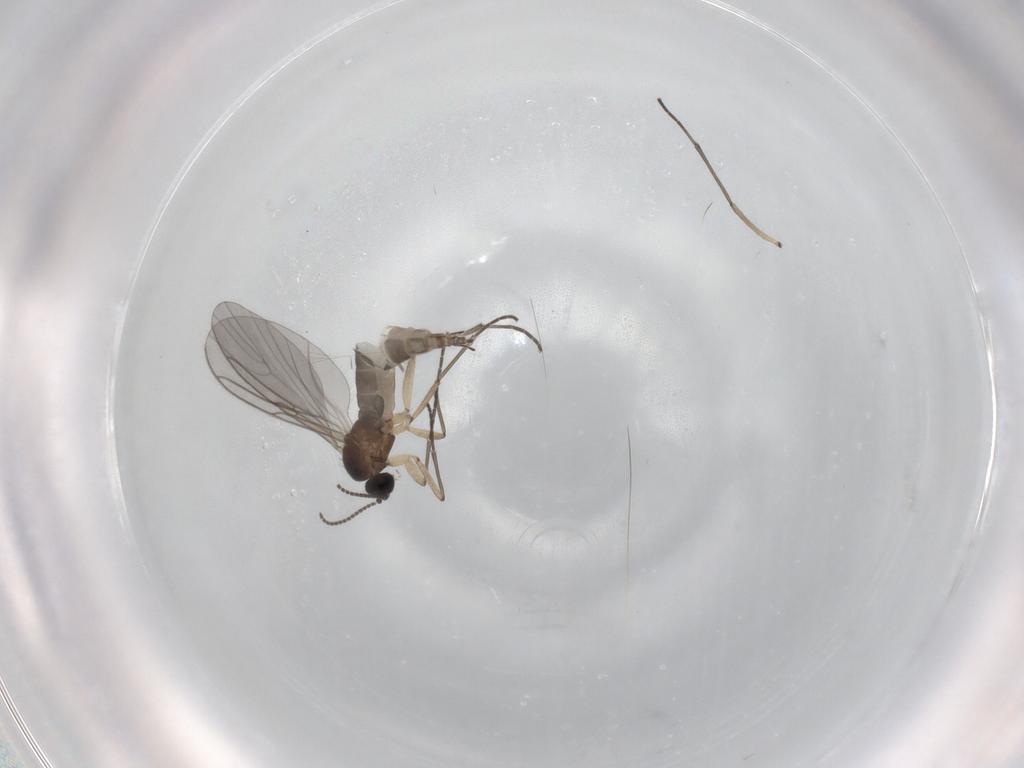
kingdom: Animalia
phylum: Arthropoda
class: Insecta
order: Diptera
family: Sciaridae
